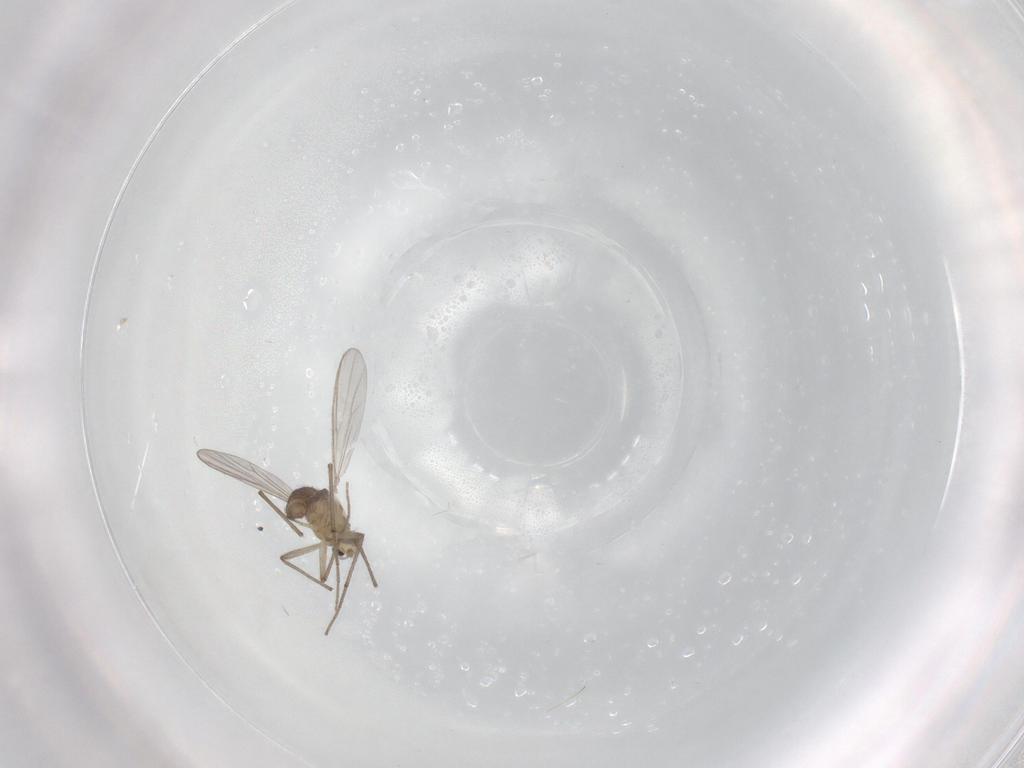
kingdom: Animalia
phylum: Arthropoda
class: Insecta
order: Diptera
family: Chironomidae
